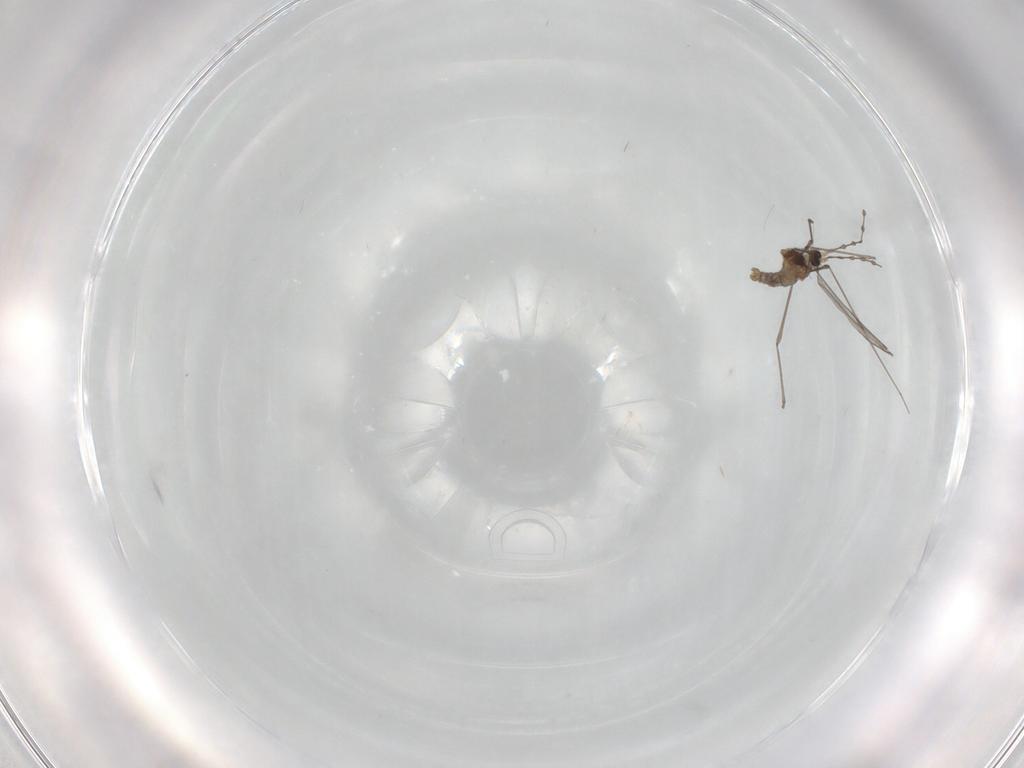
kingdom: Animalia
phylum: Arthropoda
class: Insecta
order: Diptera
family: Cecidomyiidae
